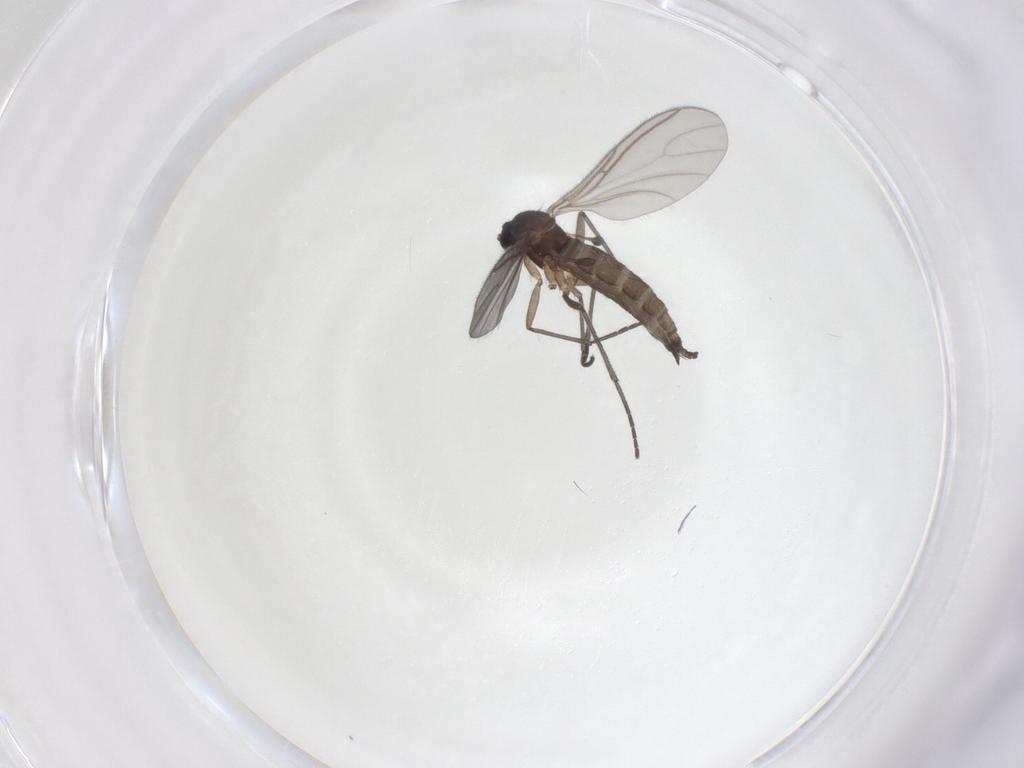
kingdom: Animalia
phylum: Arthropoda
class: Insecta
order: Diptera
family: Sciaridae
